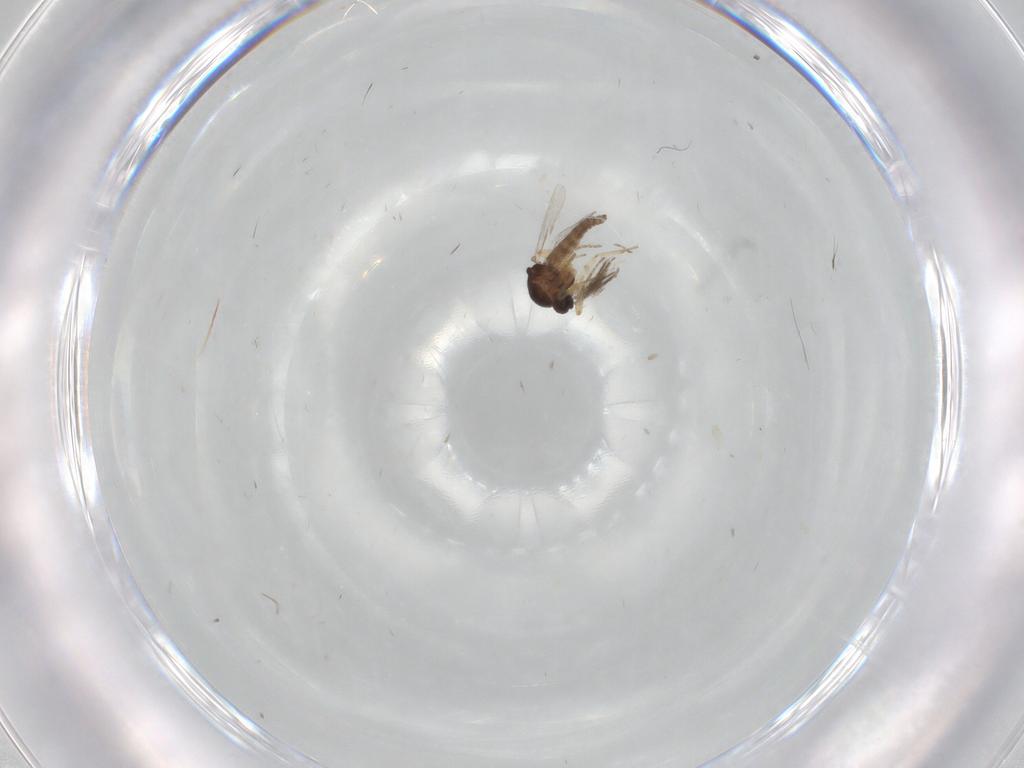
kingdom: Animalia
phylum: Arthropoda
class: Insecta
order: Diptera
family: Ceratopogonidae
